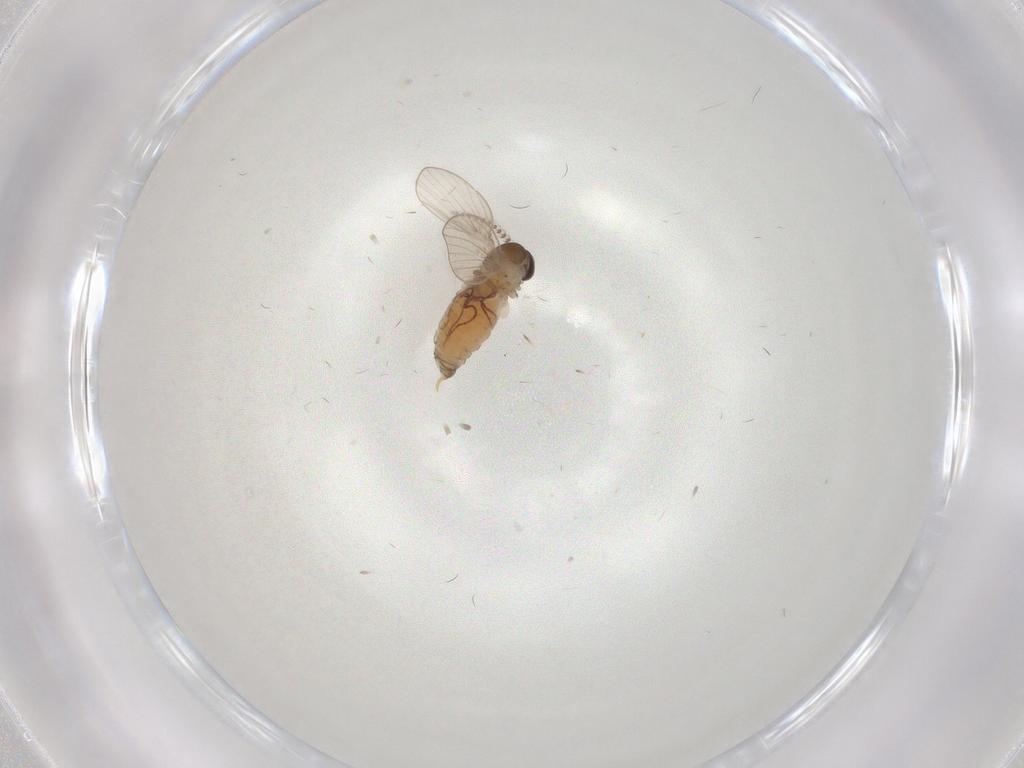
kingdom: Animalia
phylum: Arthropoda
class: Insecta
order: Diptera
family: Psychodidae
